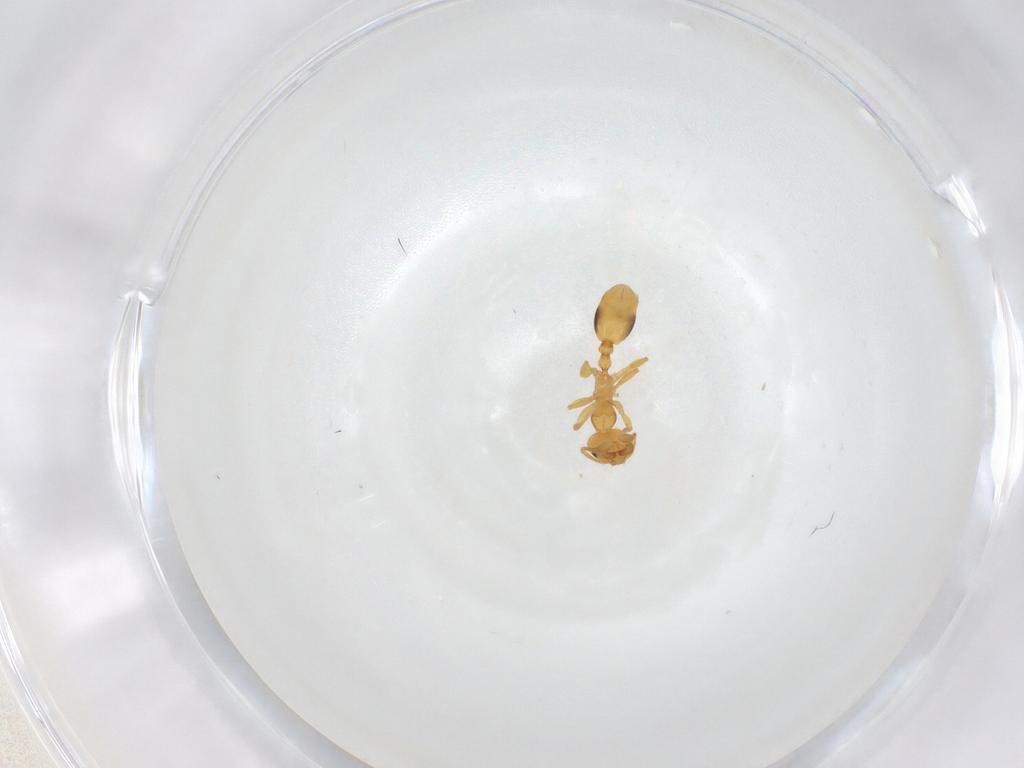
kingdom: Animalia
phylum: Arthropoda
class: Insecta
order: Hymenoptera
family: Formicidae
